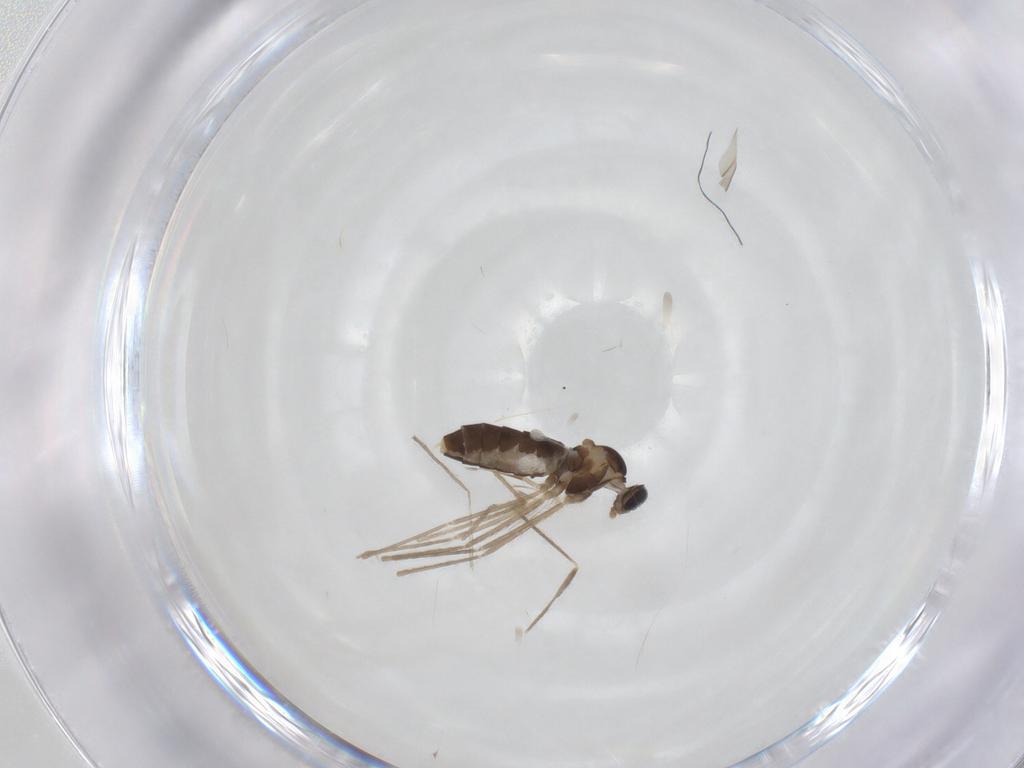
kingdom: Animalia
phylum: Arthropoda
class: Insecta
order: Diptera
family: Cecidomyiidae
